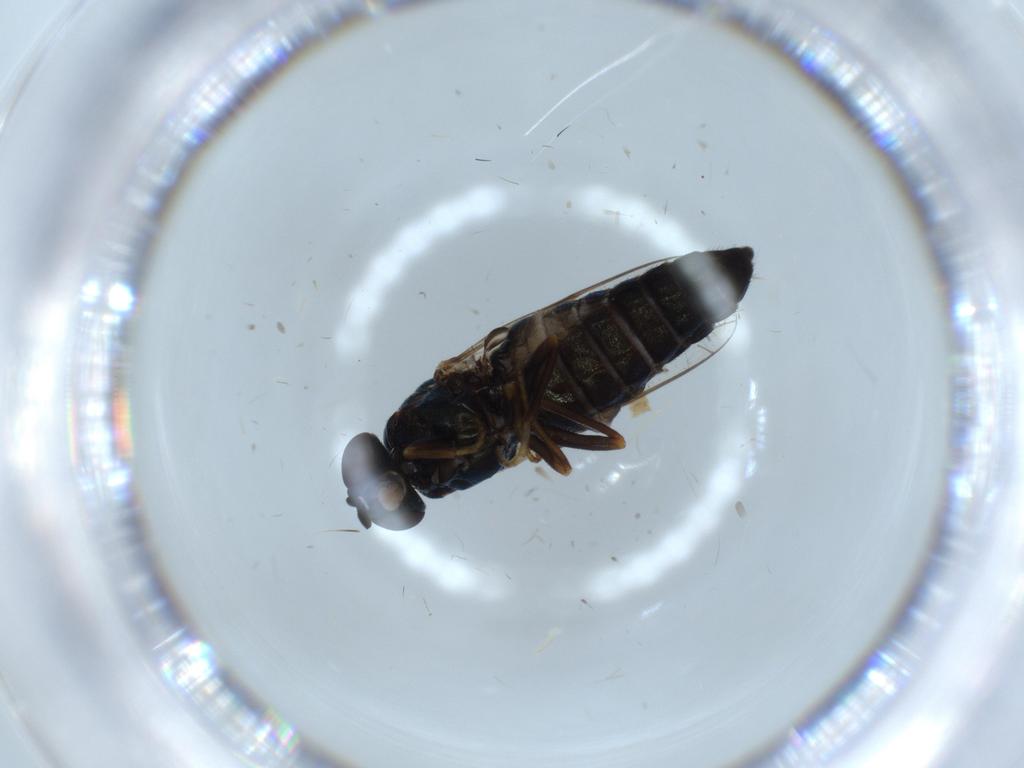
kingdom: Animalia
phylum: Arthropoda
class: Insecta
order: Diptera
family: Scenopinidae
